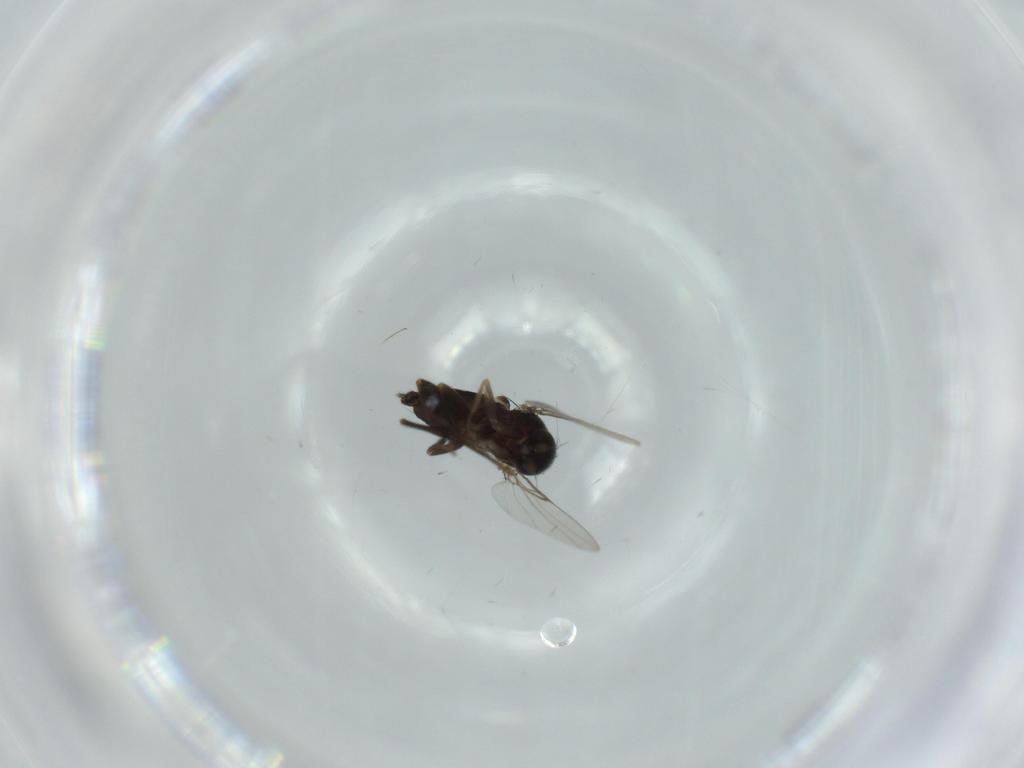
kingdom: Animalia
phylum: Arthropoda
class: Insecta
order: Diptera
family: Phoridae
